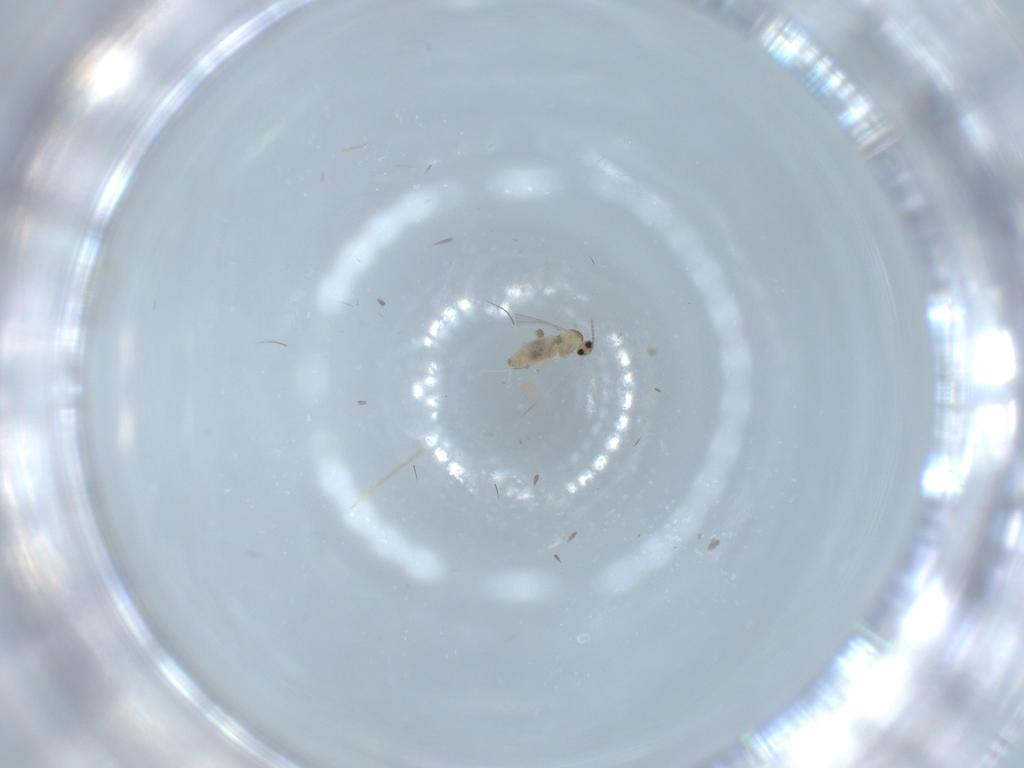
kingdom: Animalia
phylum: Arthropoda
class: Insecta
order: Diptera
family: Cecidomyiidae
